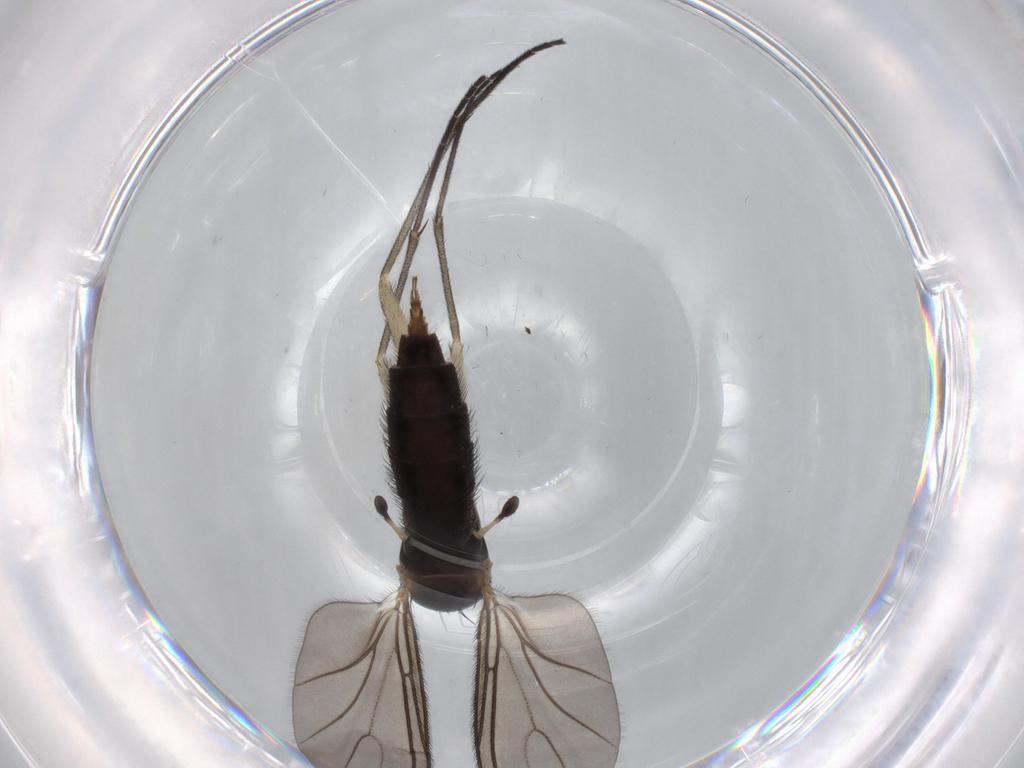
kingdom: Animalia
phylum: Arthropoda
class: Insecta
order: Diptera
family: Sciaridae
